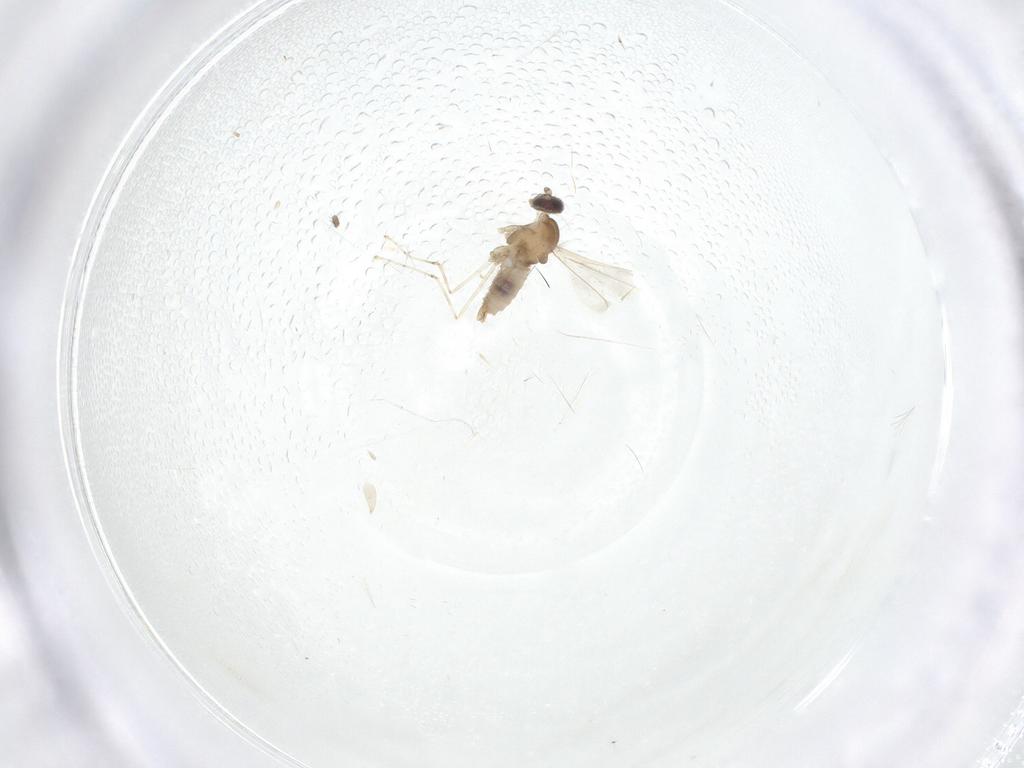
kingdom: Animalia
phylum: Arthropoda
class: Insecta
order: Diptera
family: Cecidomyiidae
